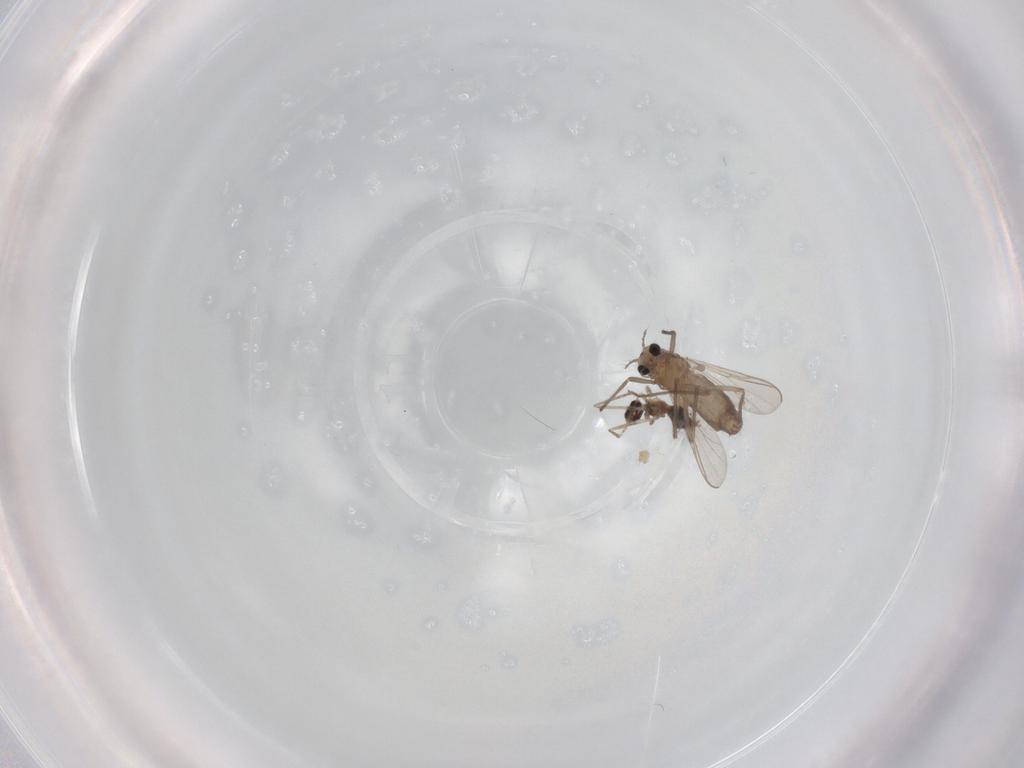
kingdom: Animalia
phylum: Arthropoda
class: Insecta
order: Diptera
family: Chironomidae
